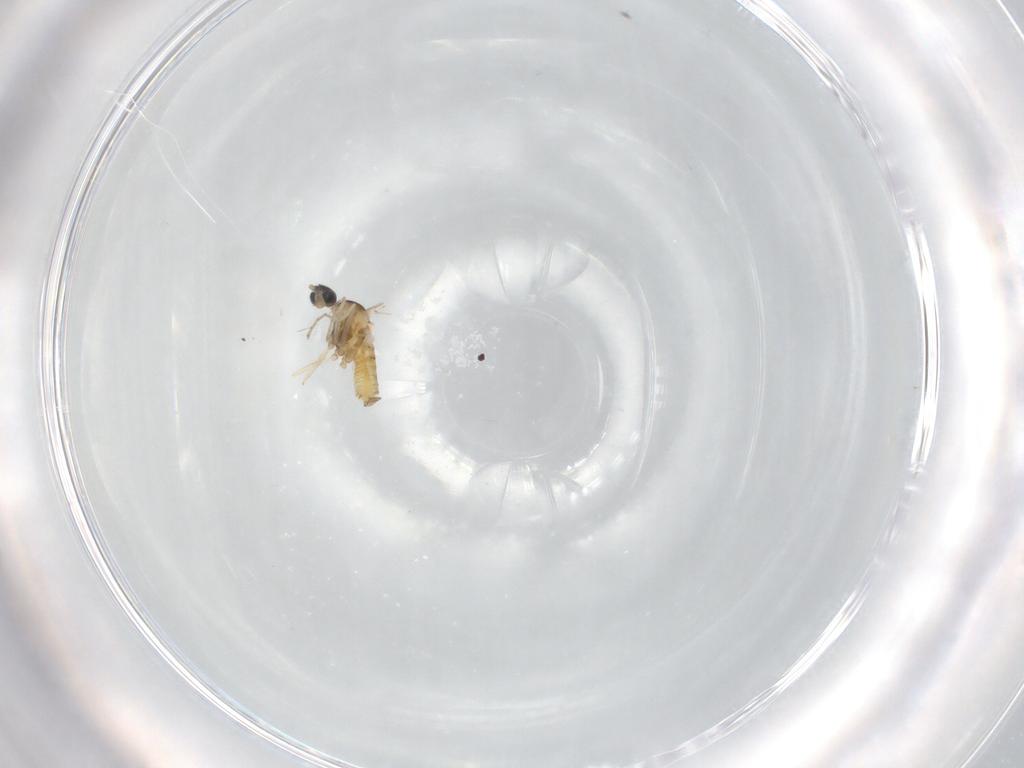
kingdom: Animalia
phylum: Arthropoda
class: Insecta
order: Diptera
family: Cecidomyiidae
